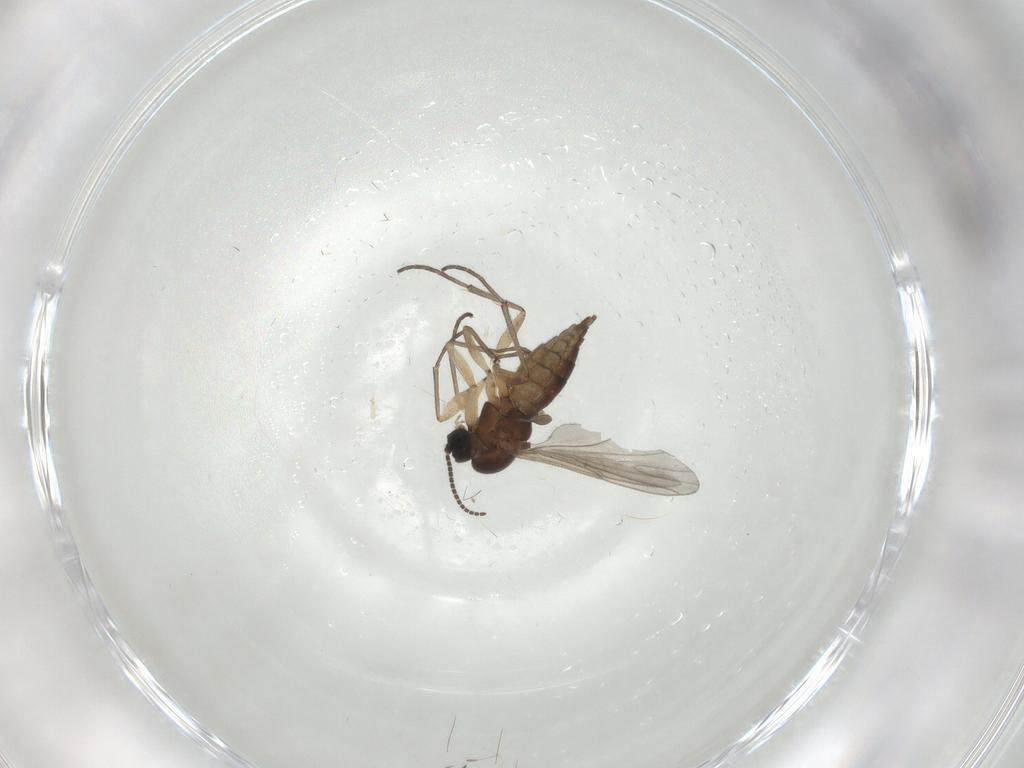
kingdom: Animalia
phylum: Arthropoda
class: Insecta
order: Diptera
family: Sciaridae
